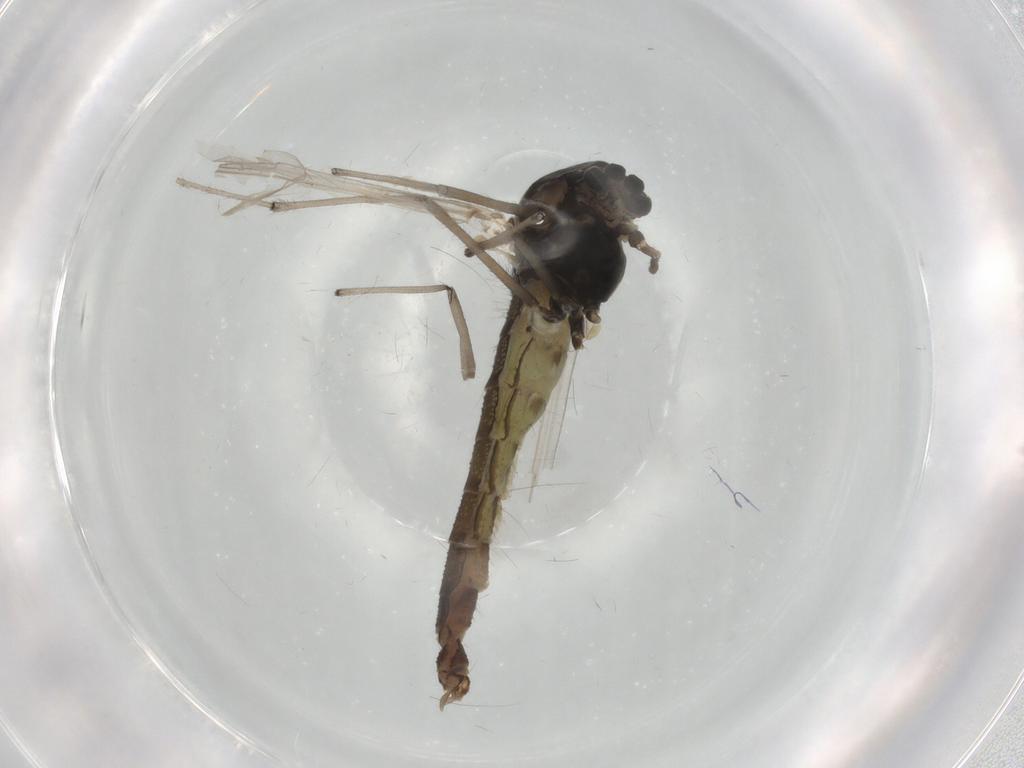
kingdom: Animalia
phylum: Arthropoda
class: Insecta
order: Diptera
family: Chironomidae
